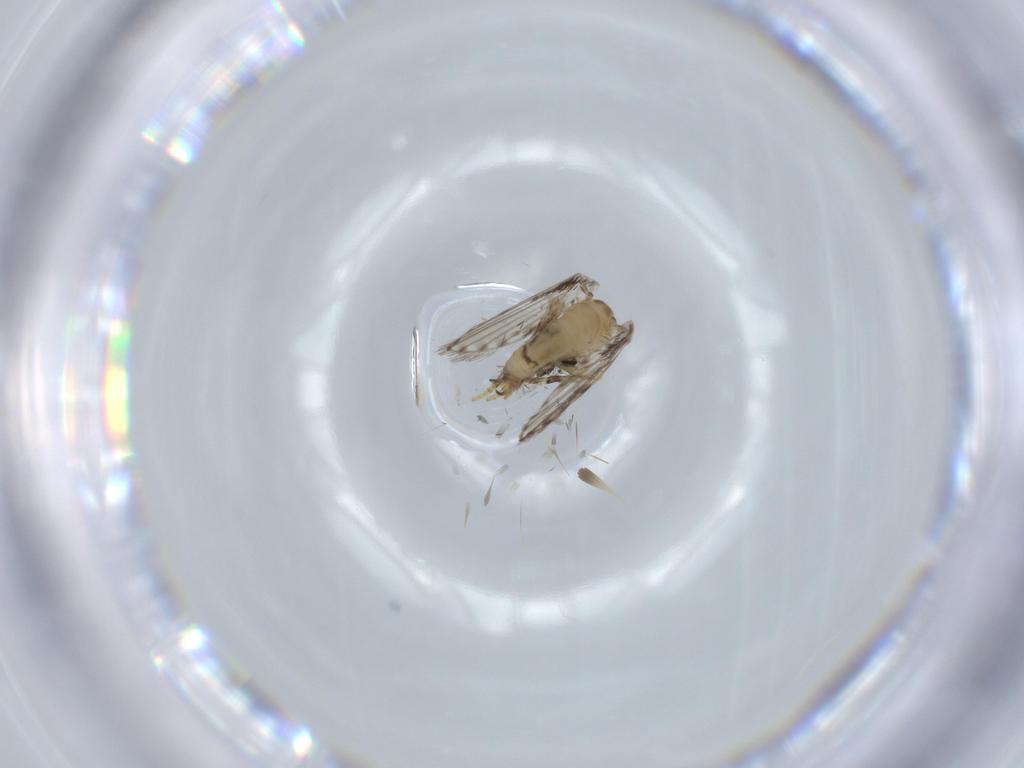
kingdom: Animalia
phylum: Arthropoda
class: Insecta
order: Diptera
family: Phoridae
